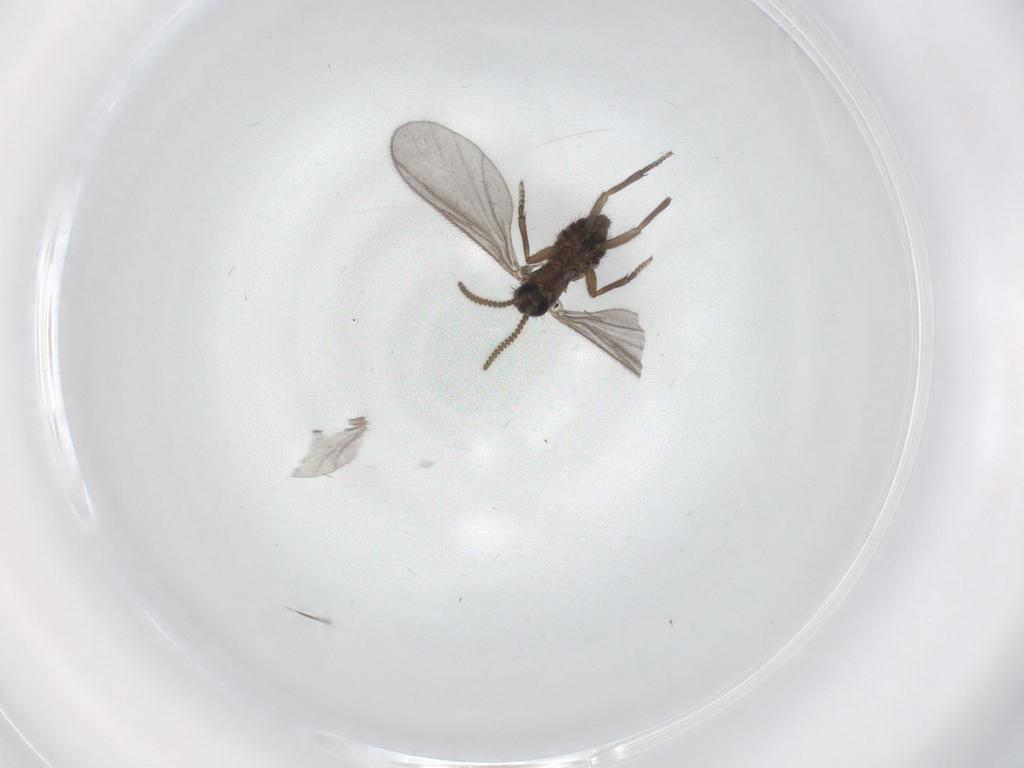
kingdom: Animalia
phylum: Arthropoda
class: Insecta
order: Diptera
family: Sciaridae
